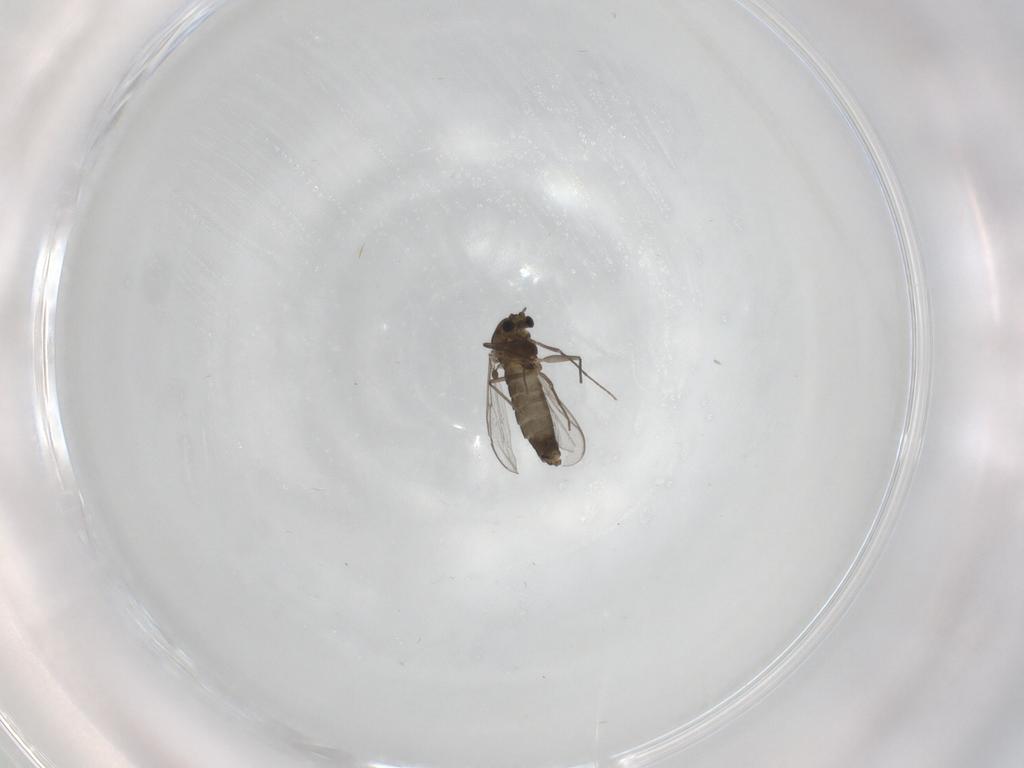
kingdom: Animalia
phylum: Arthropoda
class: Insecta
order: Diptera
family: Chironomidae
